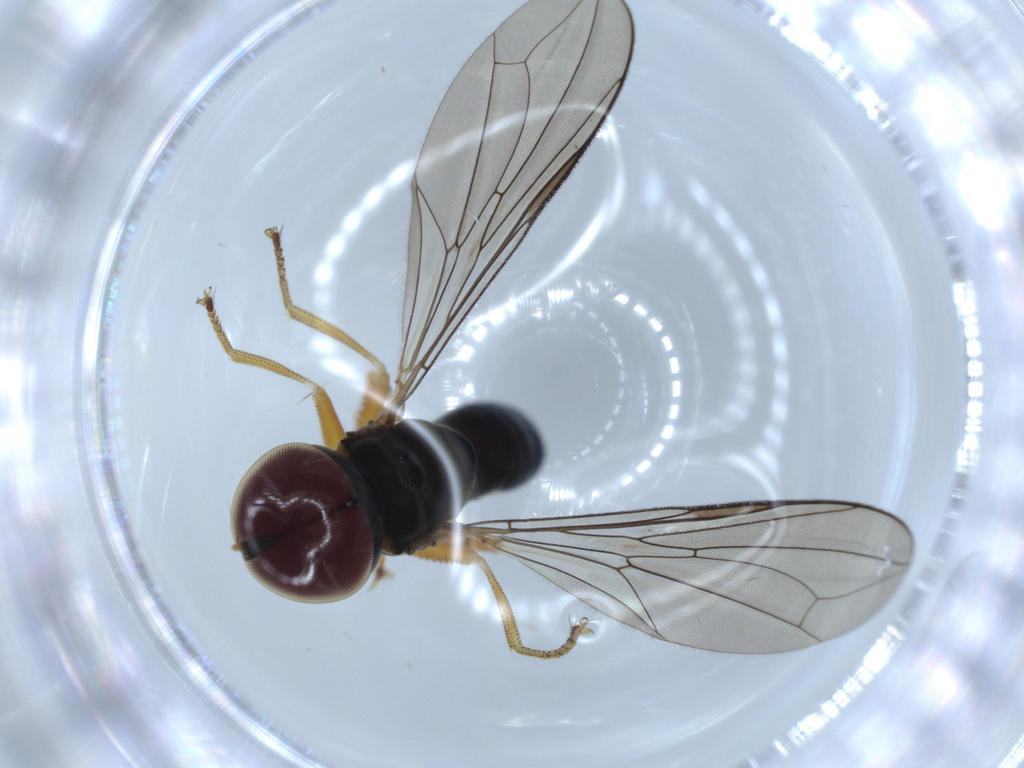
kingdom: Animalia
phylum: Arthropoda
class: Insecta
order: Diptera
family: Pipunculidae
